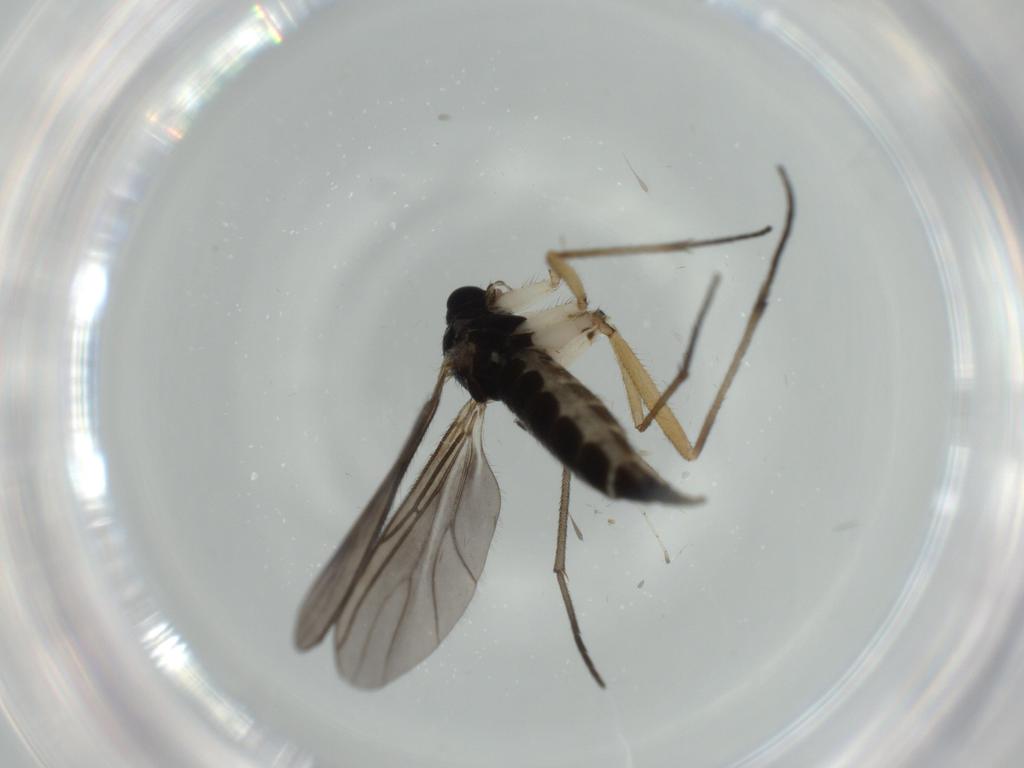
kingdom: Animalia
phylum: Arthropoda
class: Insecta
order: Diptera
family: Sciaridae
